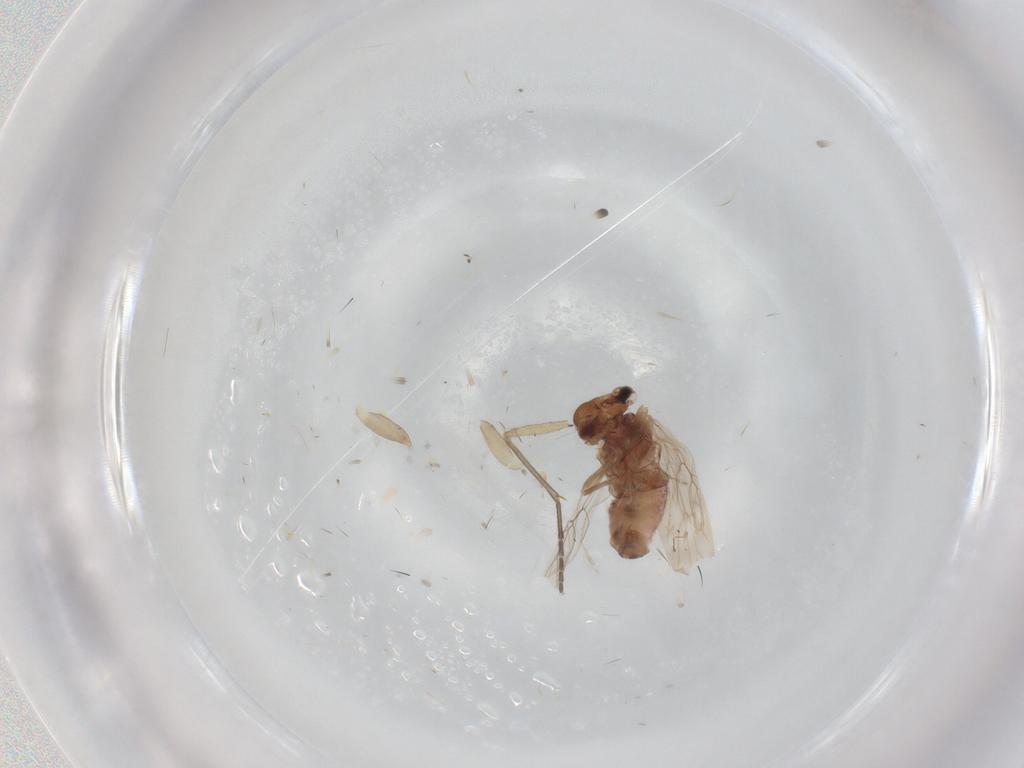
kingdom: Animalia
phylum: Arthropoda
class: Insecta
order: Psocodea
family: Lepidopsocidae
